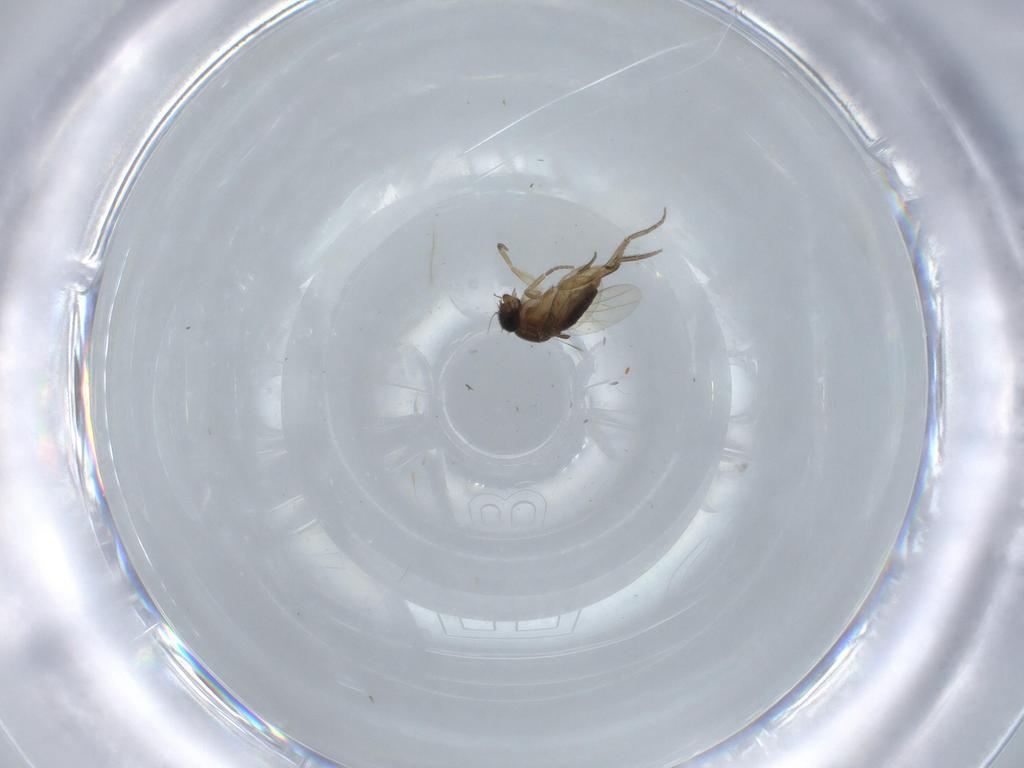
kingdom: Animalia
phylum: Arthropoda
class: Insecta
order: Diptera
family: Phoridae
